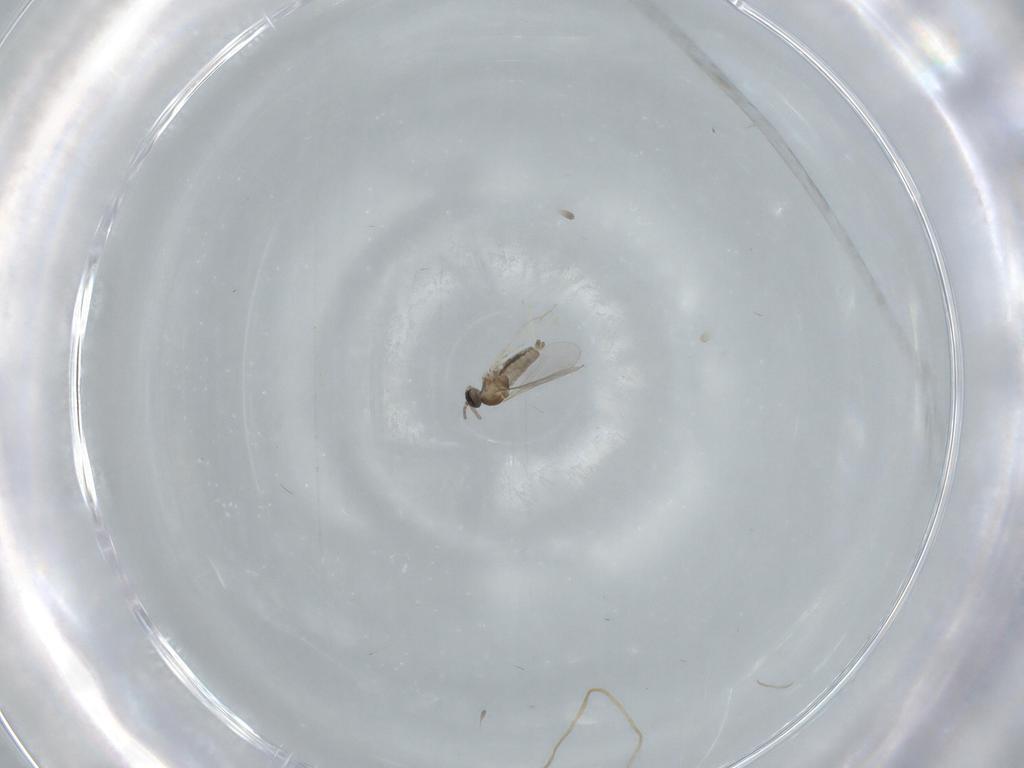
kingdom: Animalia
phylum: Arthropoda
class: Insecta
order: Diptera
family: Cecidomyiidae
